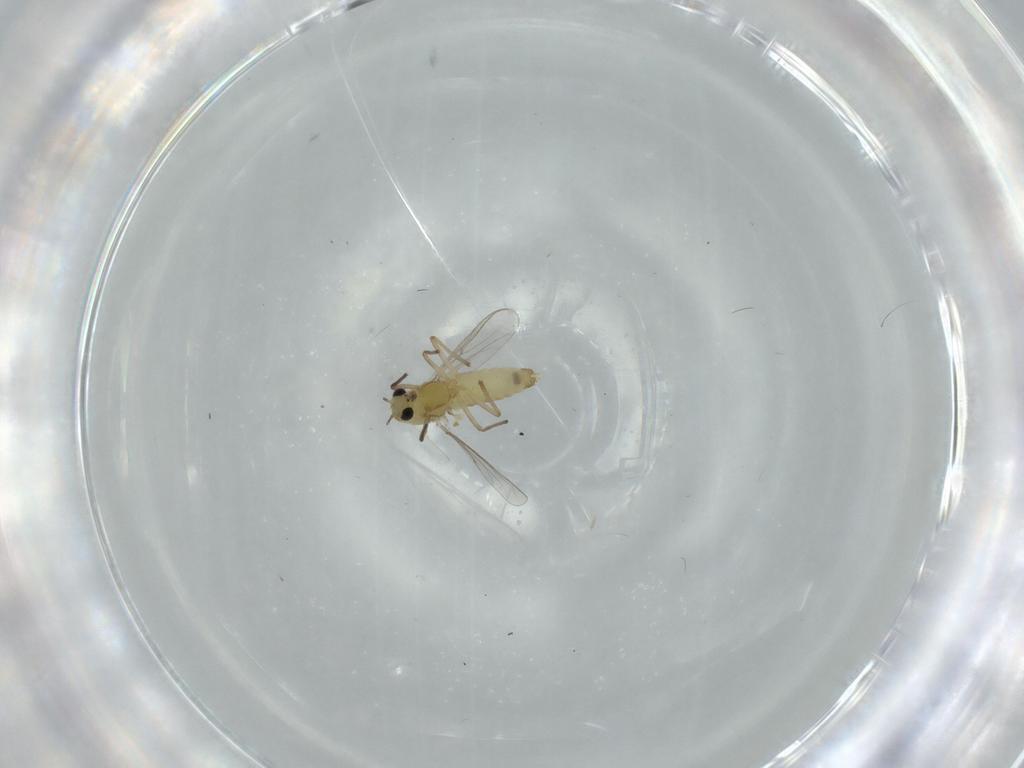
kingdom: Animalia
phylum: Arthropoda
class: Insecta
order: Diptera
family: Chironomidae
